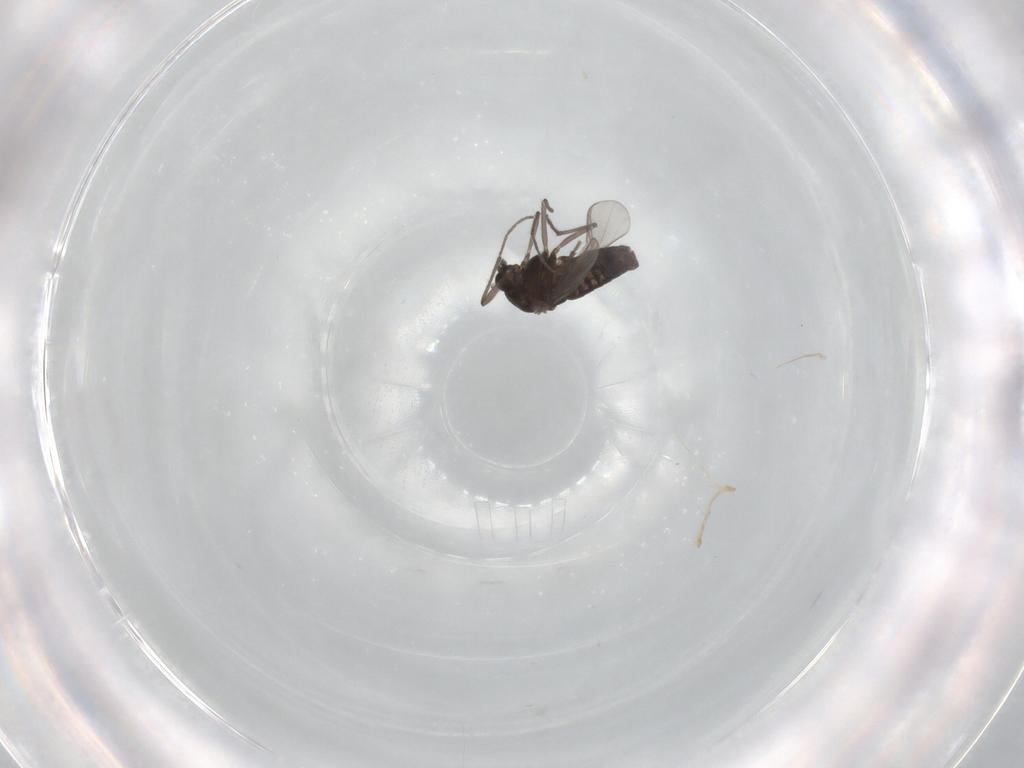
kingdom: Animalia
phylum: Arthropoda
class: Insecta
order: Diptera
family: Chironomidae
